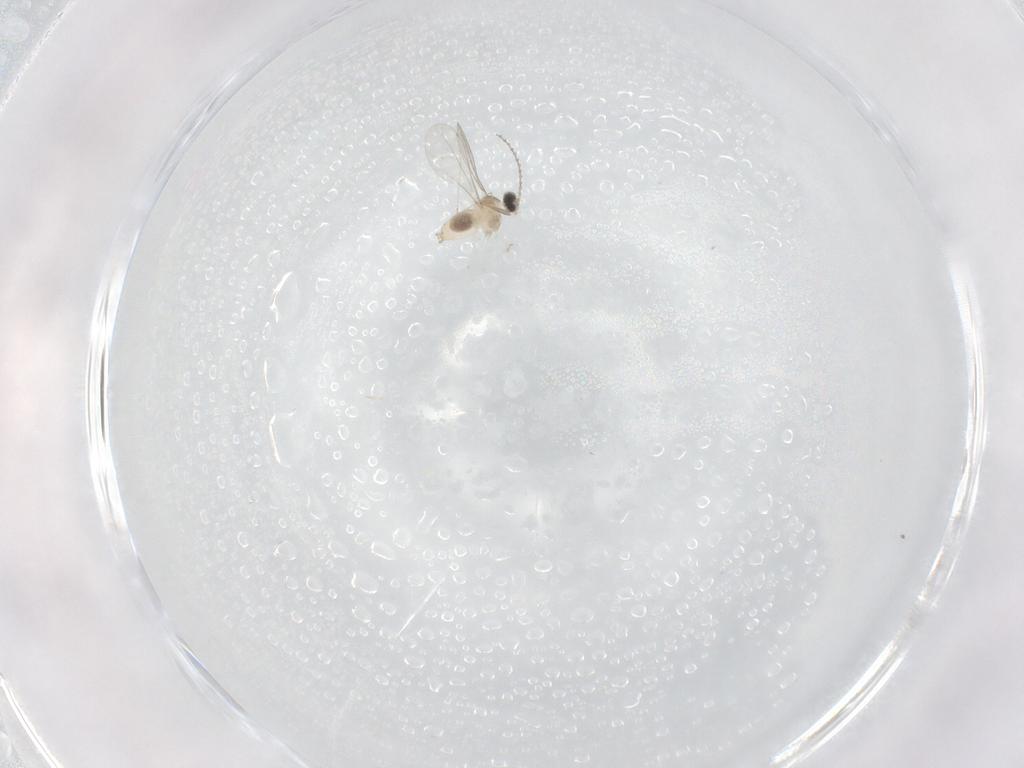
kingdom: Animalia
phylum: Arthropoda
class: Insecta
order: Diptera
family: Cecidomyiidae
